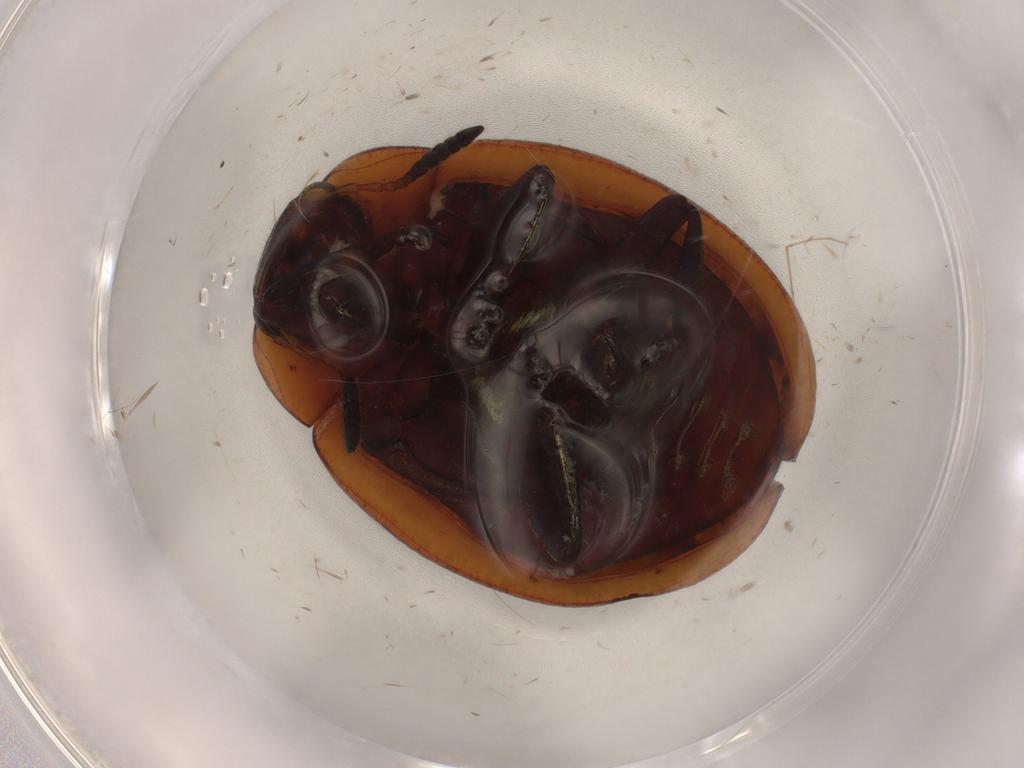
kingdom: Animalia
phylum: Arthropoda
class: Insecta
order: Coleoptera
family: Chrysomelidae
